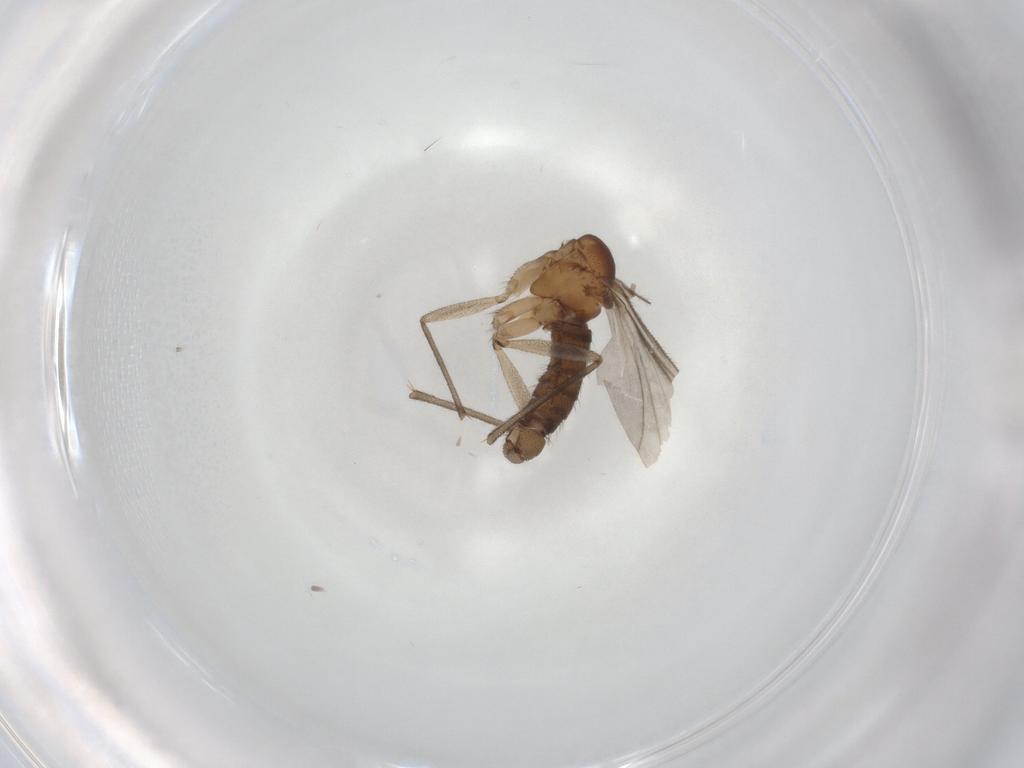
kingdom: Animalia
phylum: Arthropoda
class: Insecta
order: Diptera
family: Sciaridae
